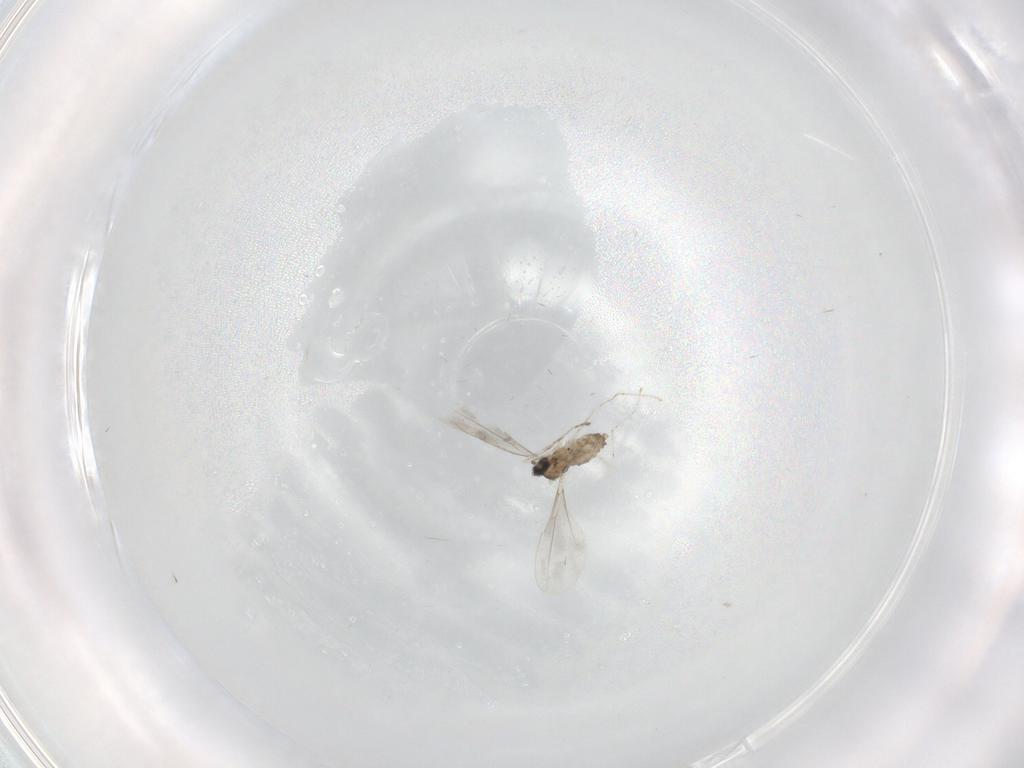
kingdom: Animalia
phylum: Arthropoda
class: Insecta
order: Diptera
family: Cecidomyiidae
